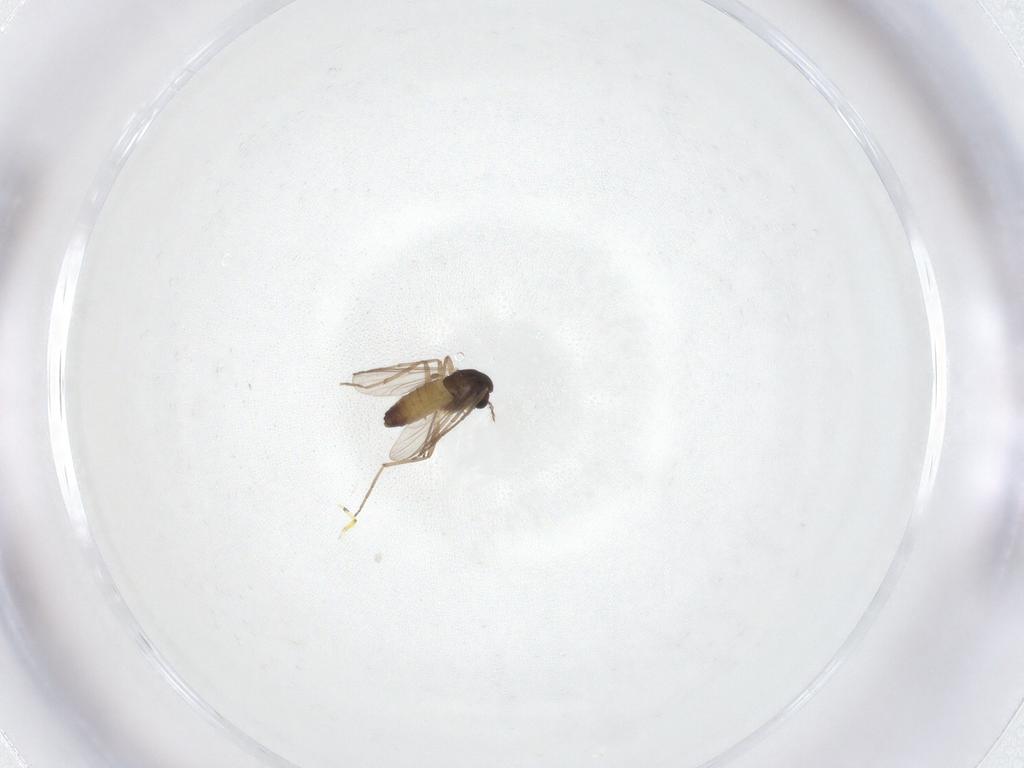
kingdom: Animalia
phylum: Arthropoda
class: Insecta
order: Diptera
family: Chironomidae
